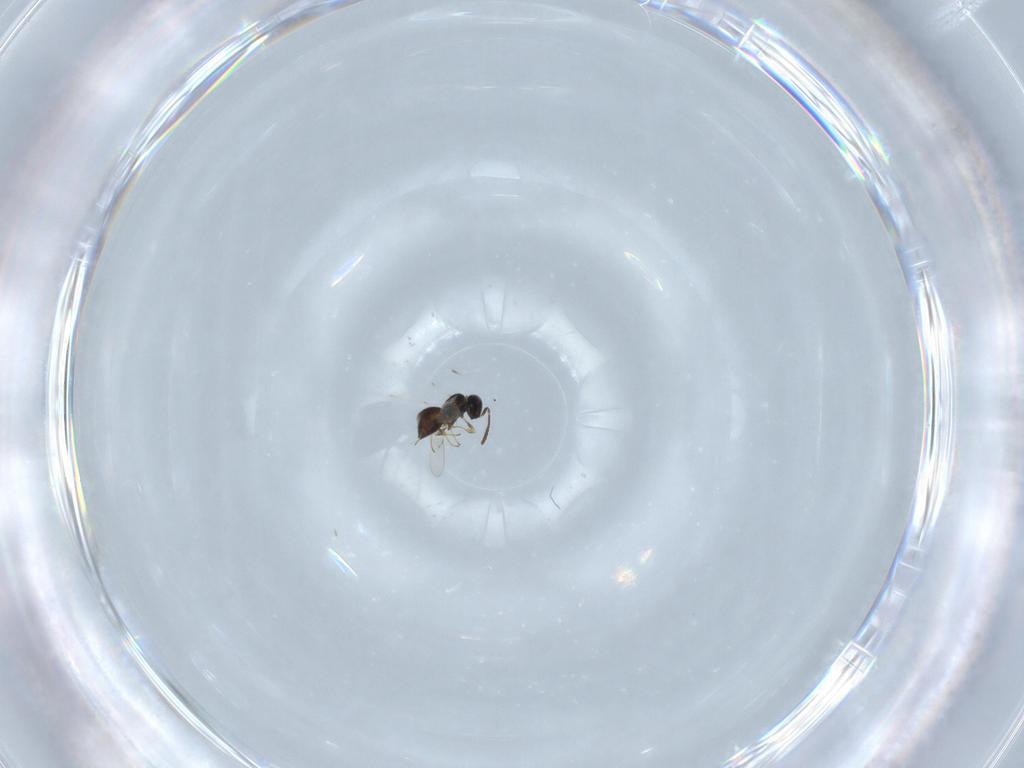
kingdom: Animalia
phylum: Arthropoda
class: Insecta
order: Hymenoptera
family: Scelionidae
